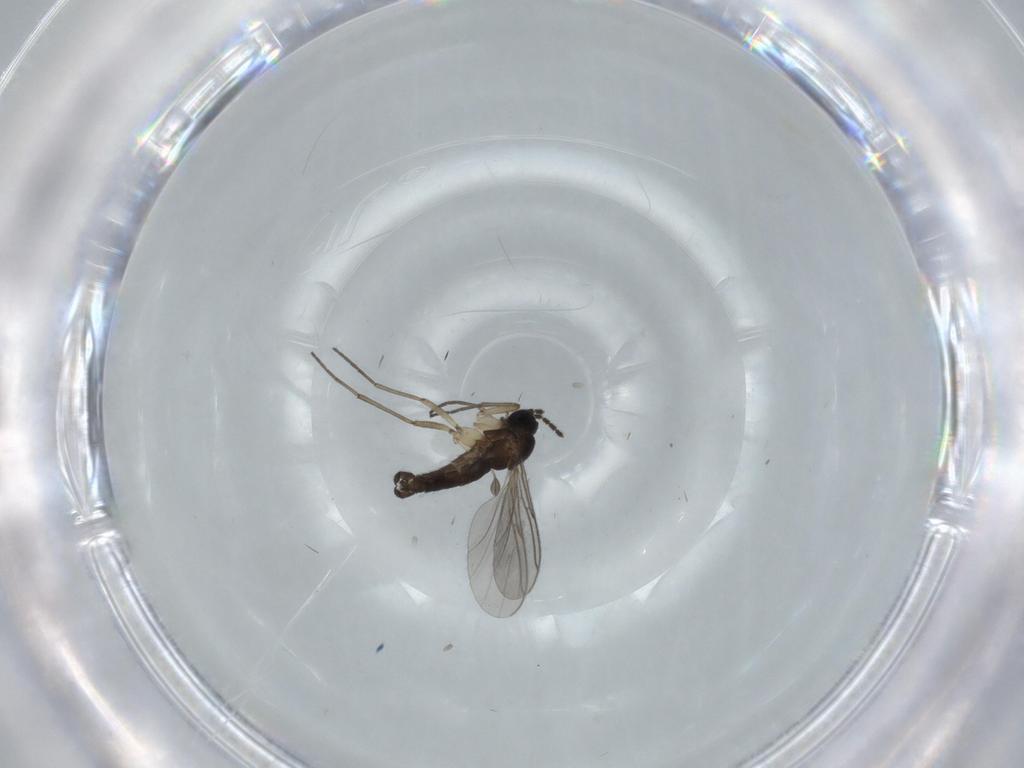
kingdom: Animalia
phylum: Arthropoda
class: Insecta
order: Diptera
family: Sciaridae
